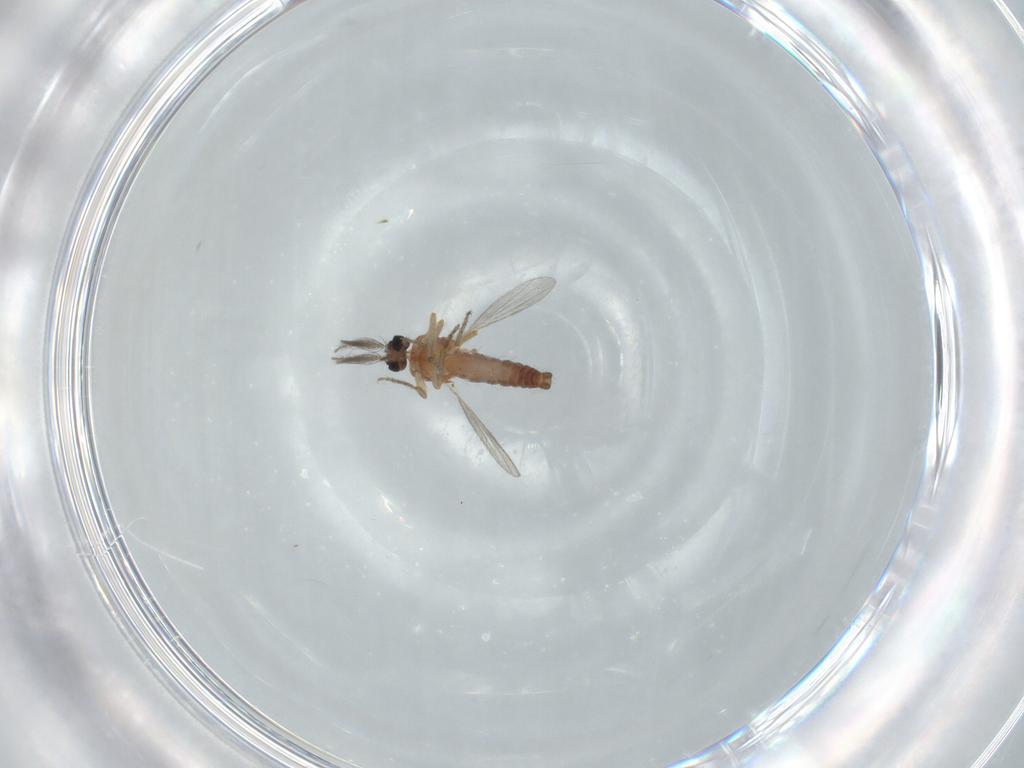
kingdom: Animalia
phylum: Arthropoda
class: Insecta
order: Diptera
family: Ceratopogonidae
